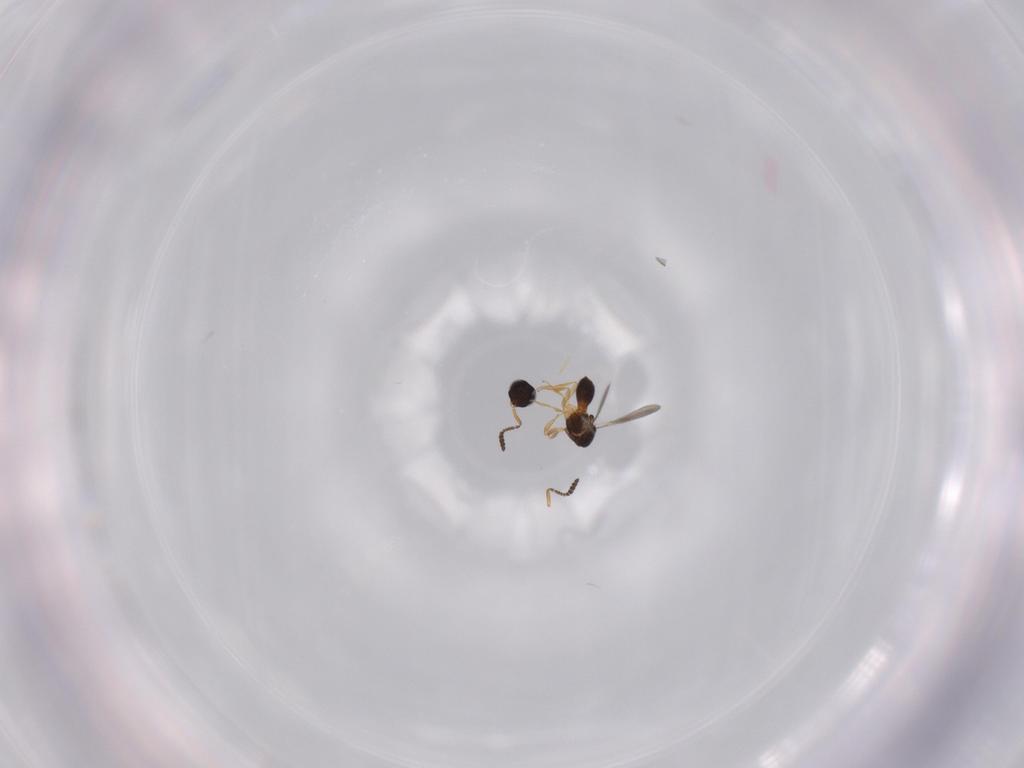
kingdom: Animalia
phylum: Arthropoda
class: Insecta
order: Hymenoptera
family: Scelionidae
